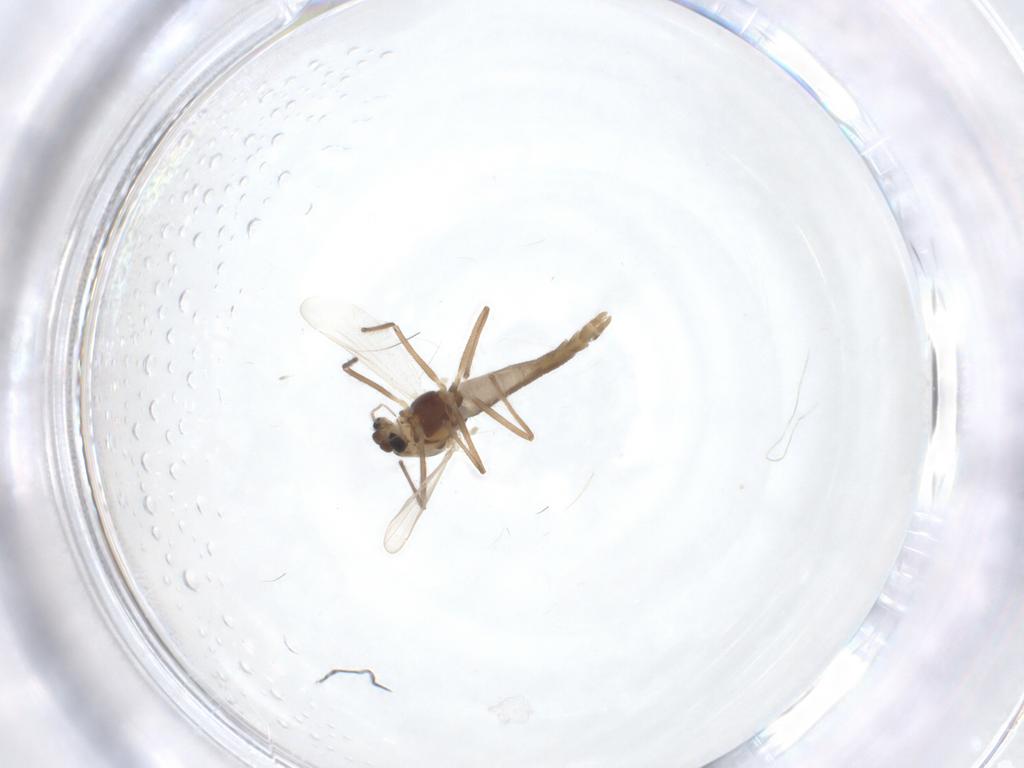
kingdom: Animalia
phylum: Arthropoda
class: Insecta
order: Diptera
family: Chironomidae
